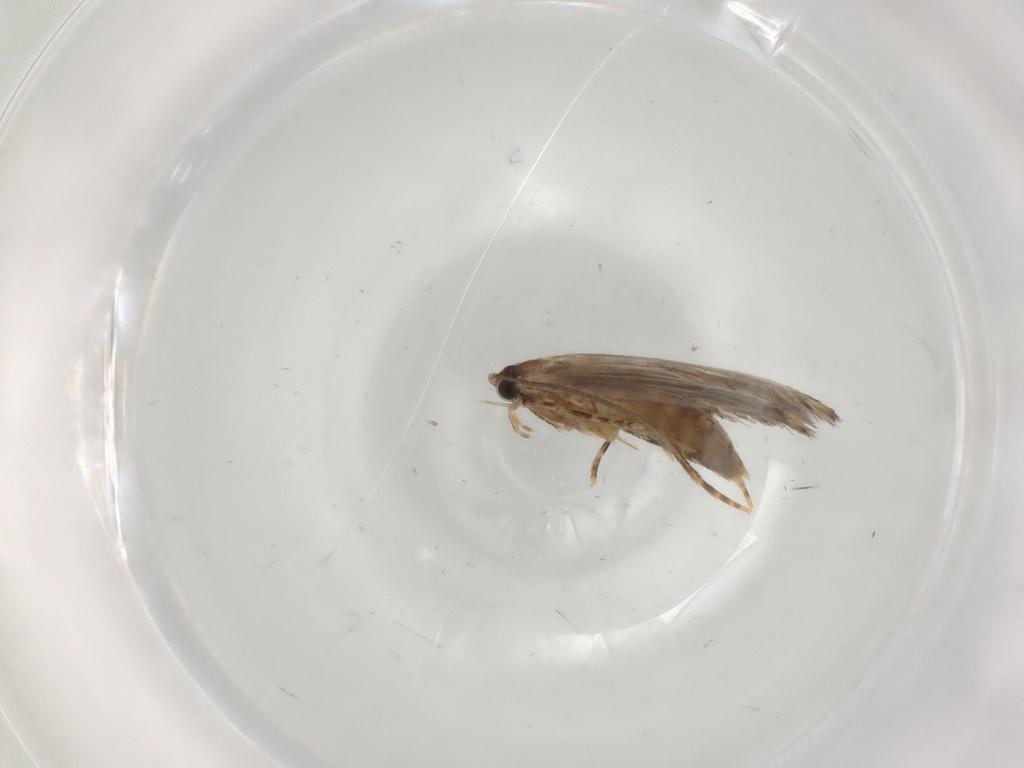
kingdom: Animalia
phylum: Arthropoda
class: Insecta
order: Lepidoptera
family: Tineidae
